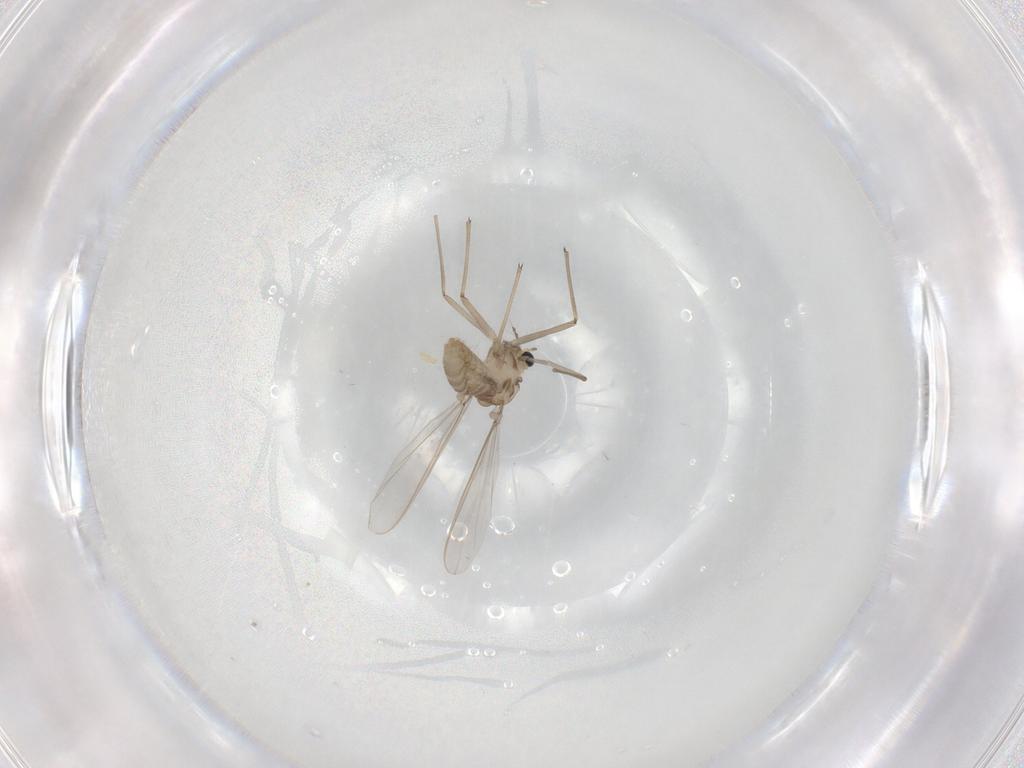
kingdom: Animalia
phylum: Arthropoda
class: Insecta
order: Diptera
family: Chironomidae
